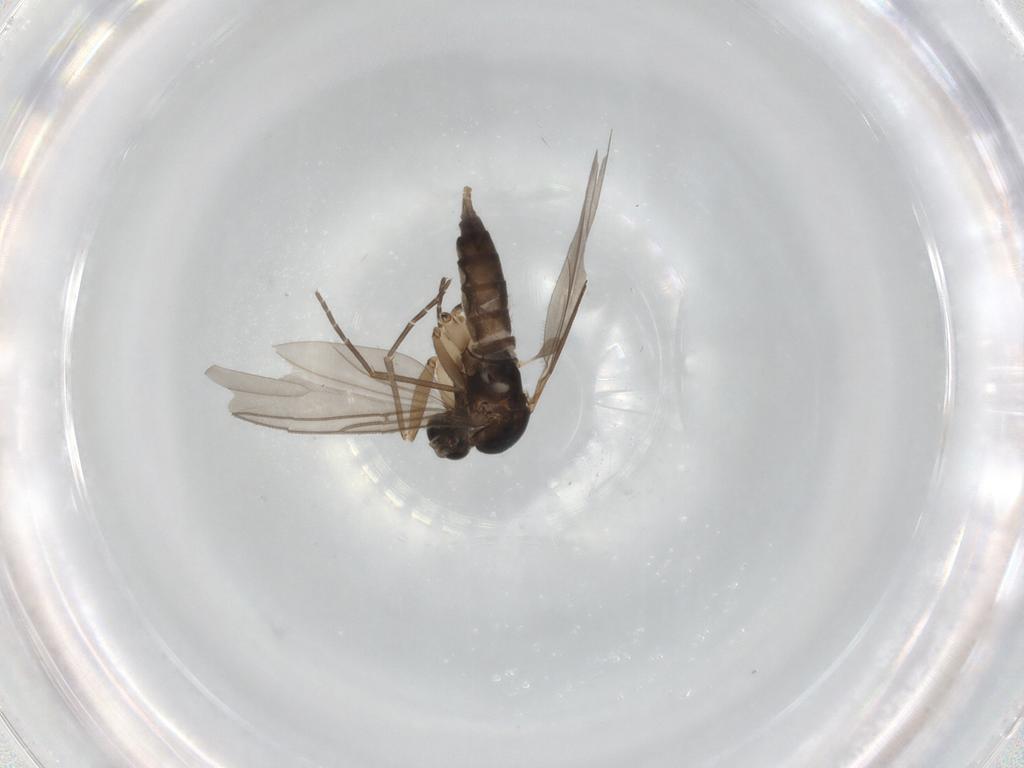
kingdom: Animalia
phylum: Arthropoda
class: Insecta
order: Diptera
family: Sciaridae
